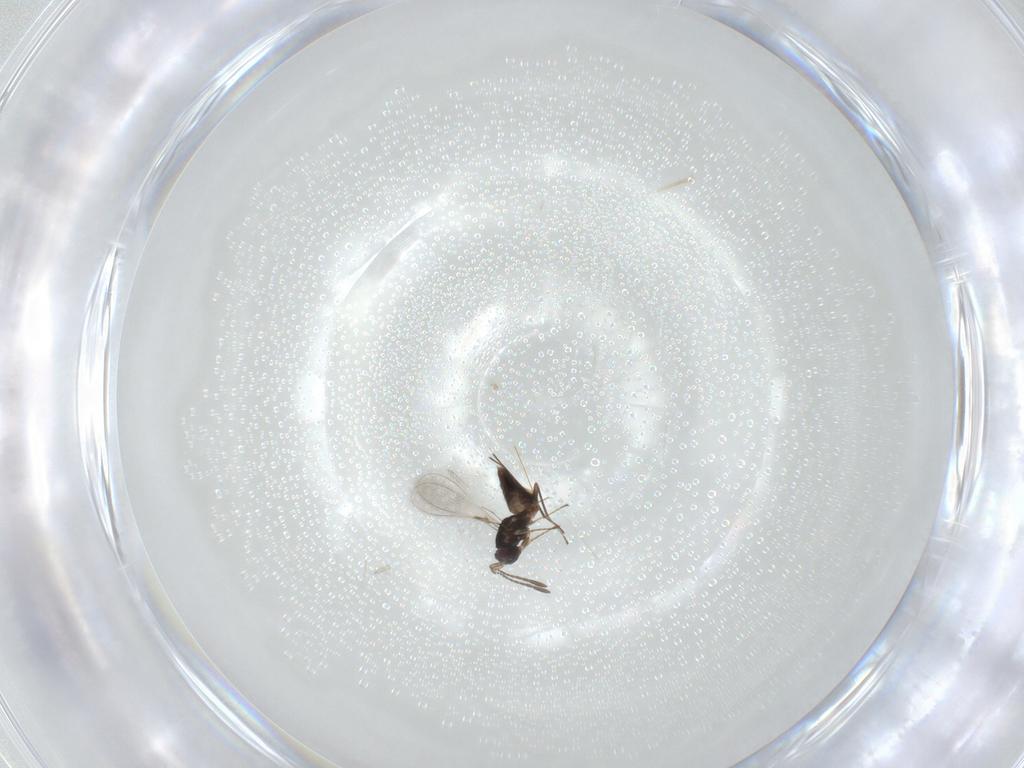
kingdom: Animalia
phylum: Arthropoda
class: Insecta
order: Hymenoptera
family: Mymaridae
